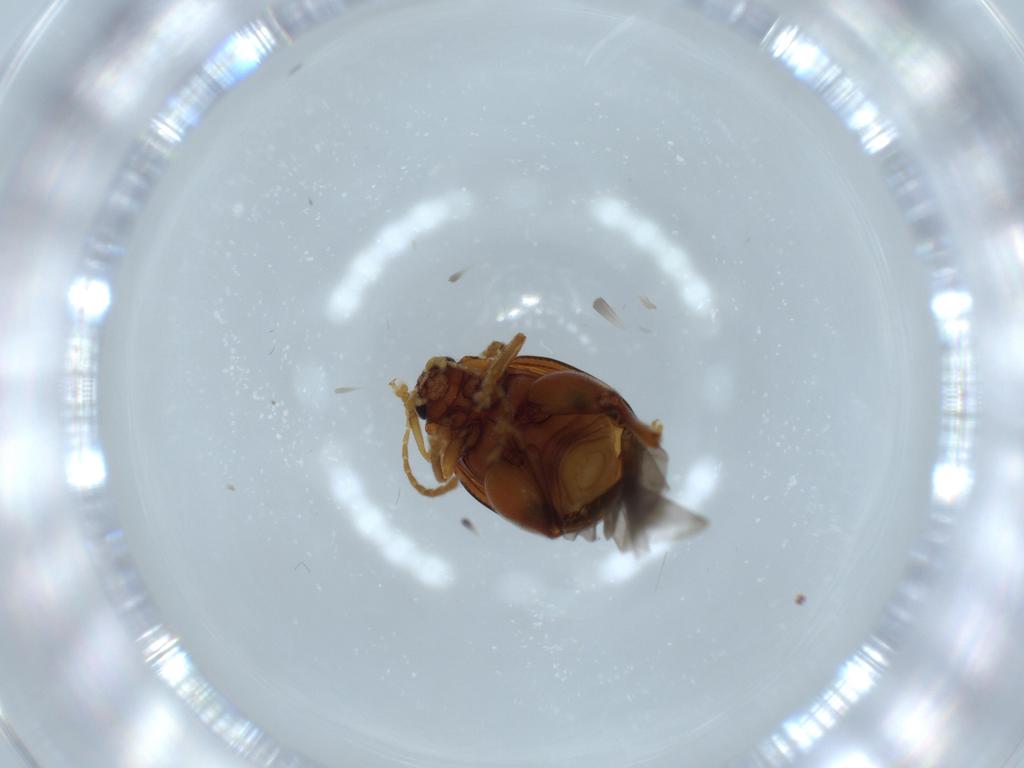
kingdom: Animalia
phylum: Arthropoda
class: Insecta
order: Coleoptera
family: Chrysomelidae
